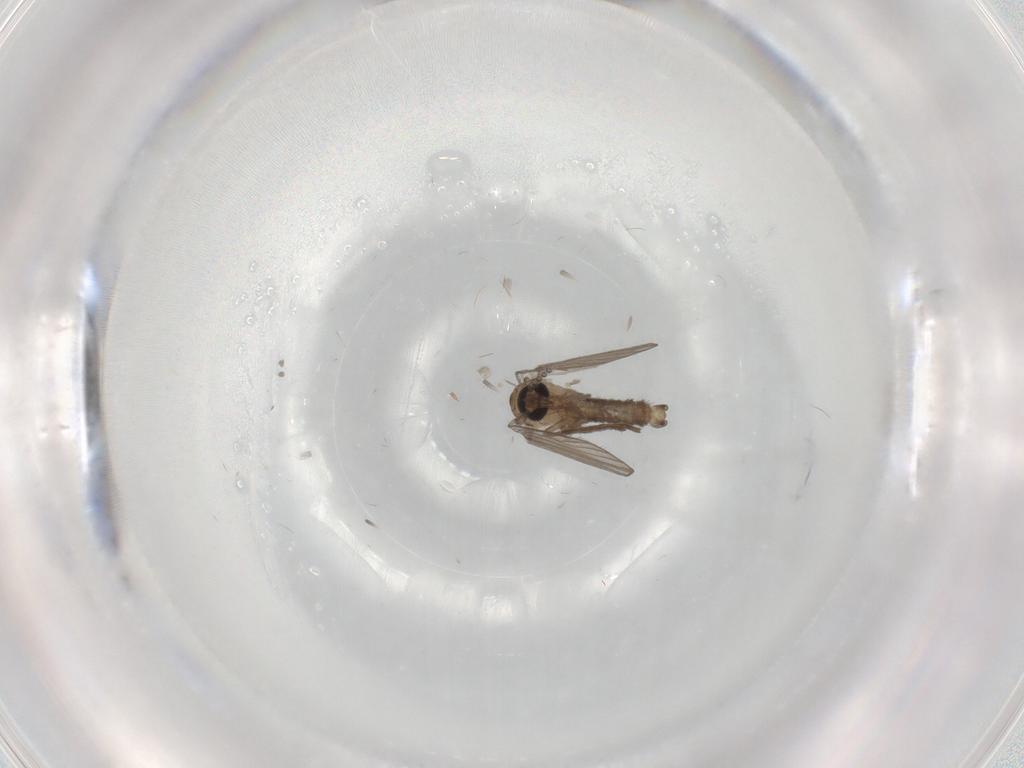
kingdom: Animalia
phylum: Arthropoda
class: Insecta
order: Diptera
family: Psychodidae
